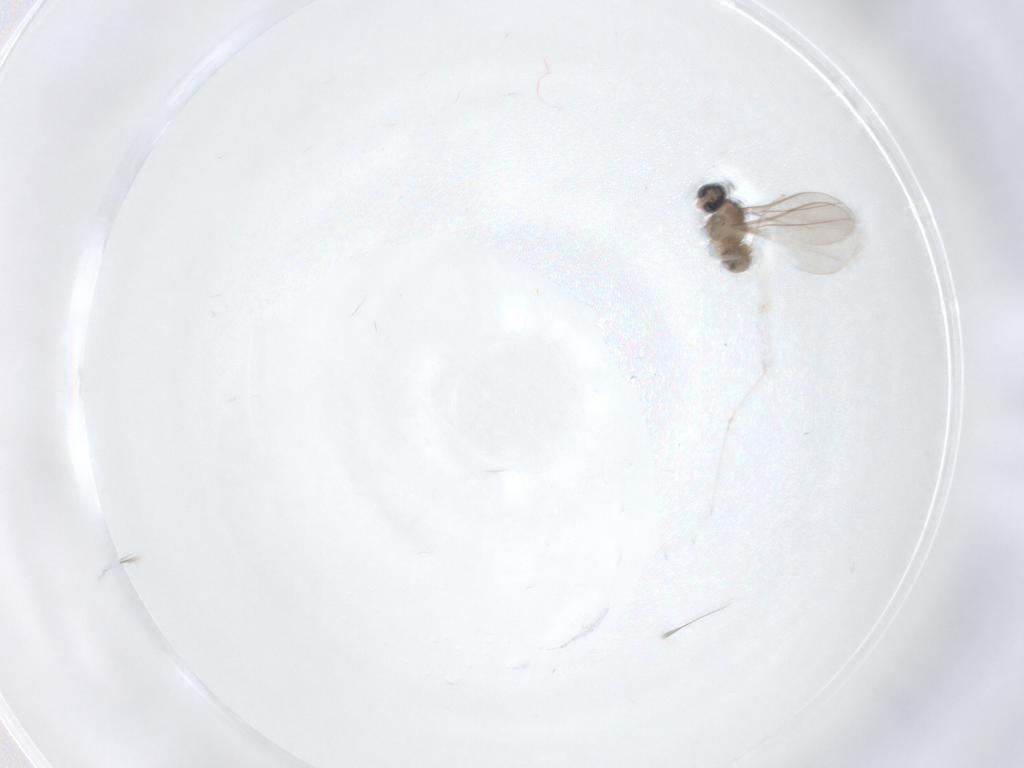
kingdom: Animalia
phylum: Arthropoda
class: Insecta
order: Diptera
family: Cecidomyiidae
